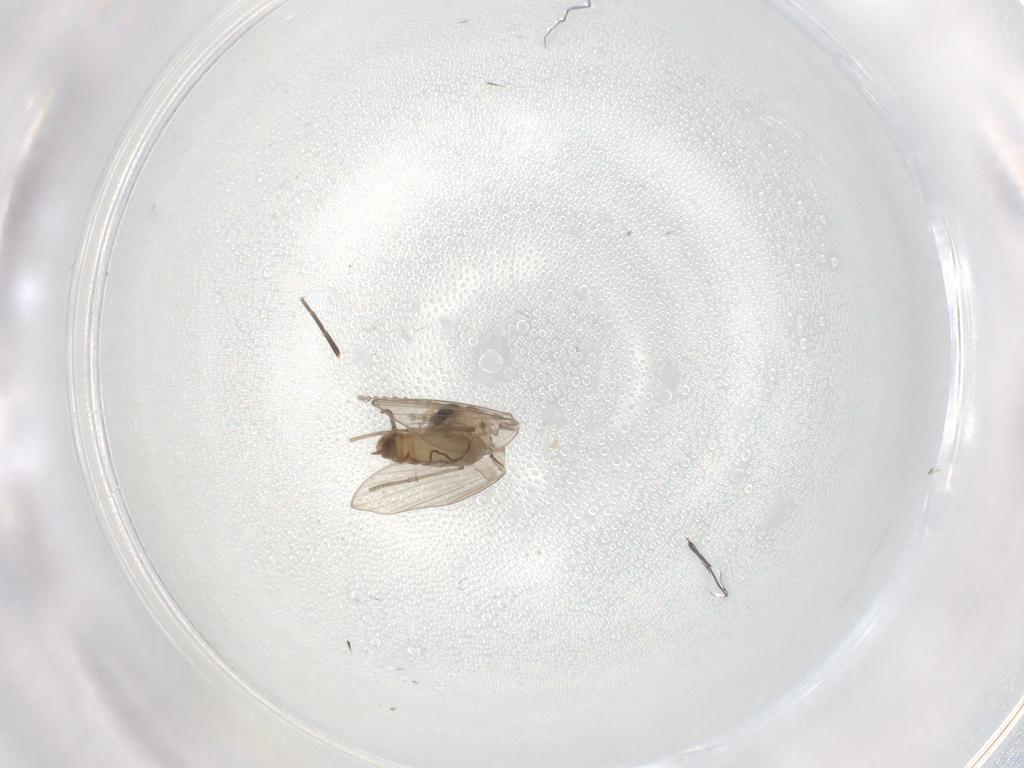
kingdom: Animalia
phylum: Arthropoda
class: Insecta
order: Diptera
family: Psychodidae
